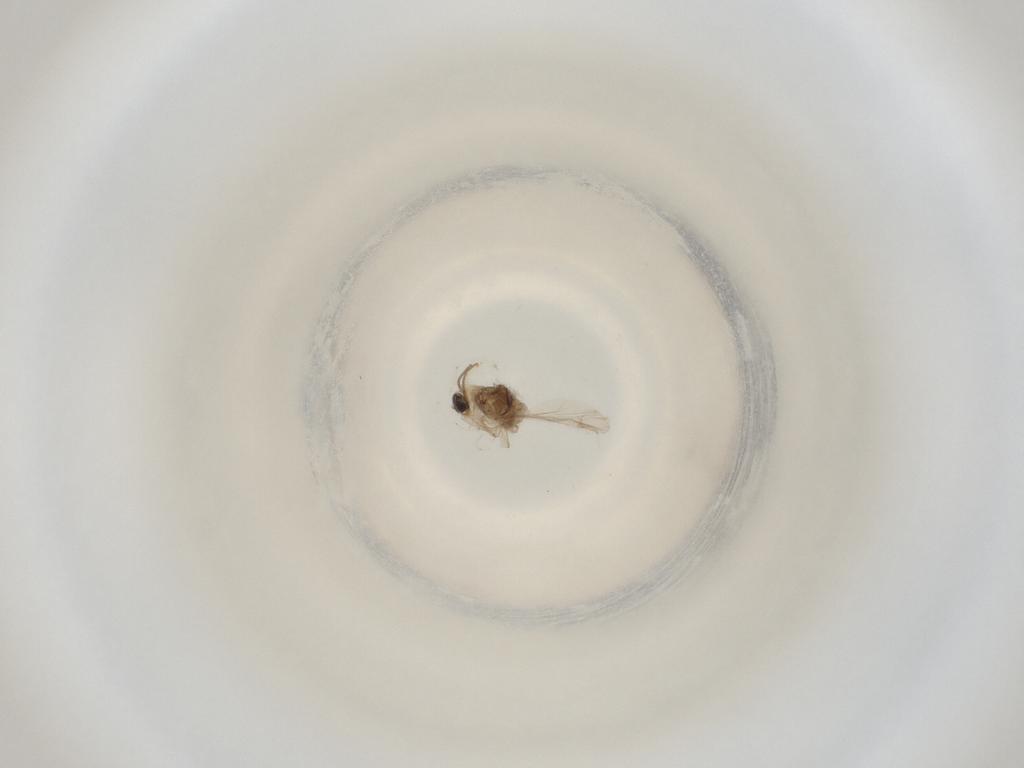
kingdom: Animalia
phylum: Arthropoda
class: Insecta
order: Diptera
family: Cecidomyiidae
